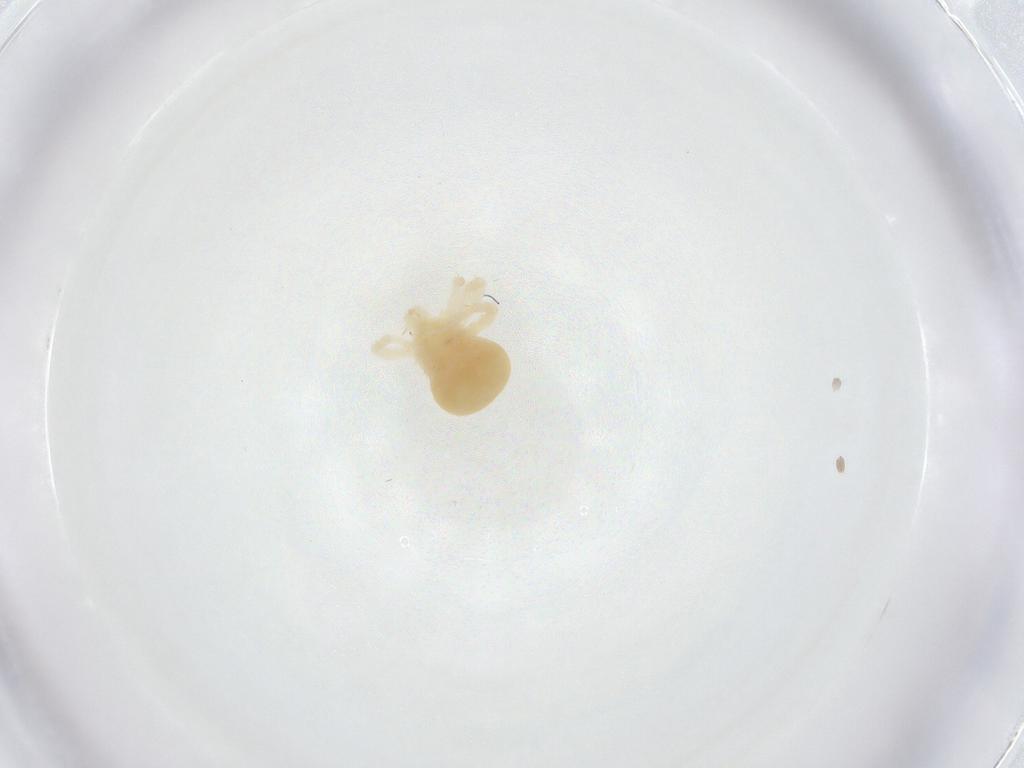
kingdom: Animalia
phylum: Arthropoda
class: Arachnida
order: Trombidiformes
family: Anystidae
